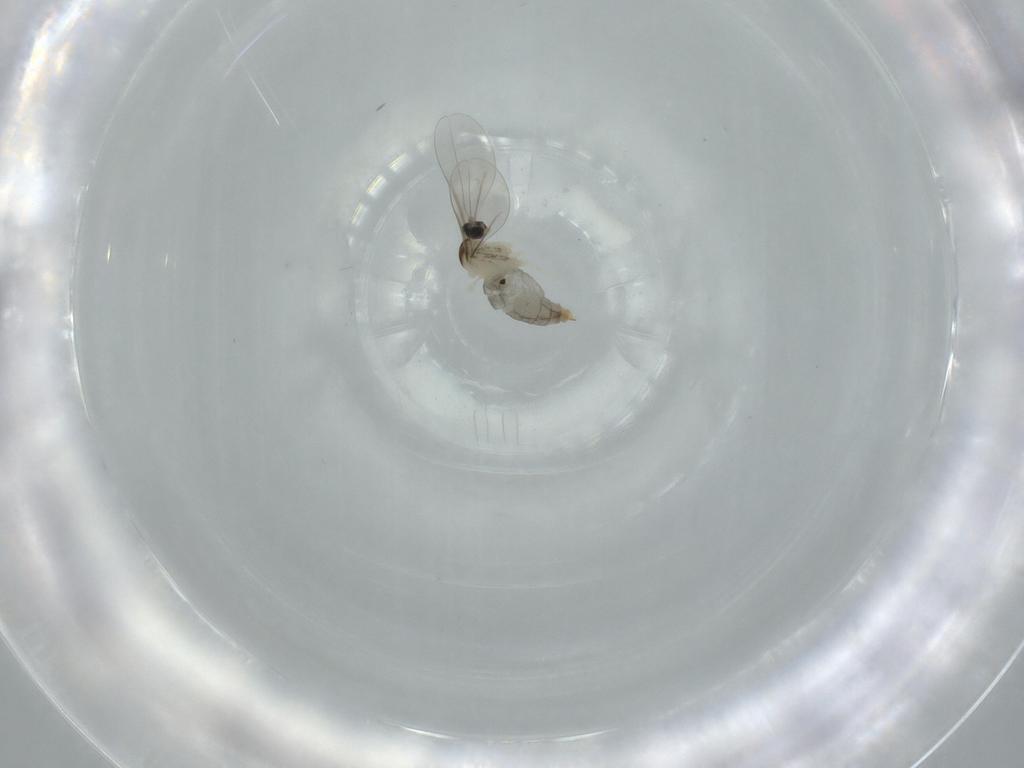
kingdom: Animalia
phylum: Arthropoda
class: Insecta
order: Diptera
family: Cecidomyiidae
